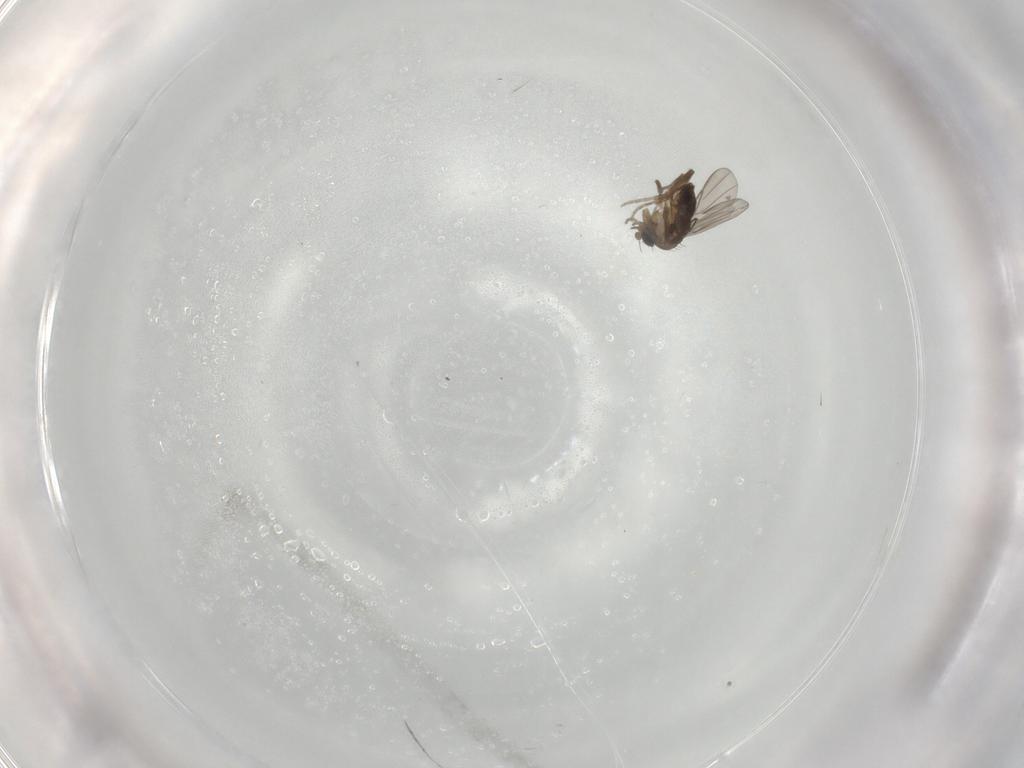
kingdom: Animalia
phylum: Arthropoda
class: Insecta
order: Diptera
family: Phoridae
